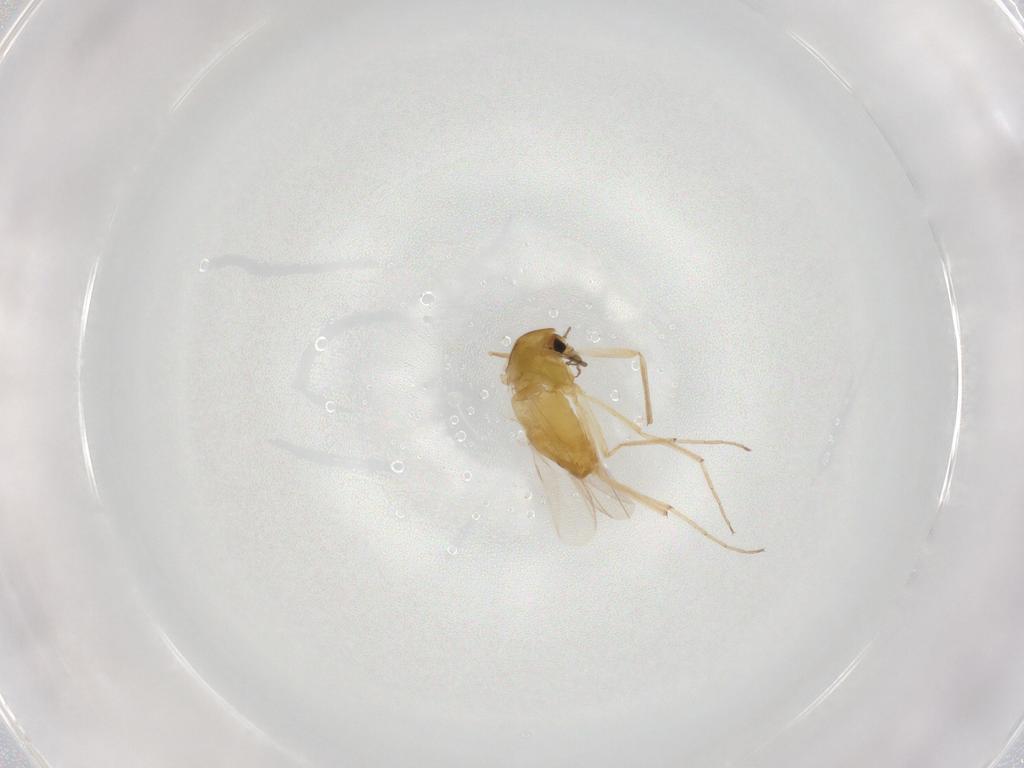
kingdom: Animalia
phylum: Arthropoda
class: Insecta
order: Diptera
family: Chironomidae
